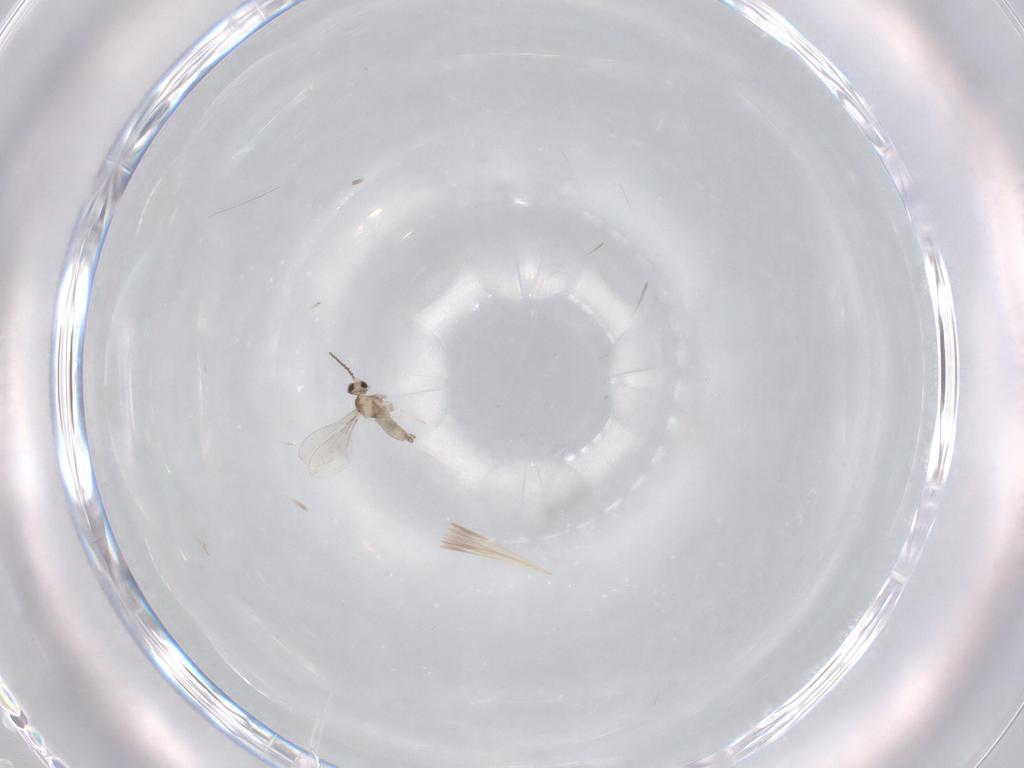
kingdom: Animalia
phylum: Arthropoda
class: Insecta
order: Diptera
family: Cecidomyiidae
